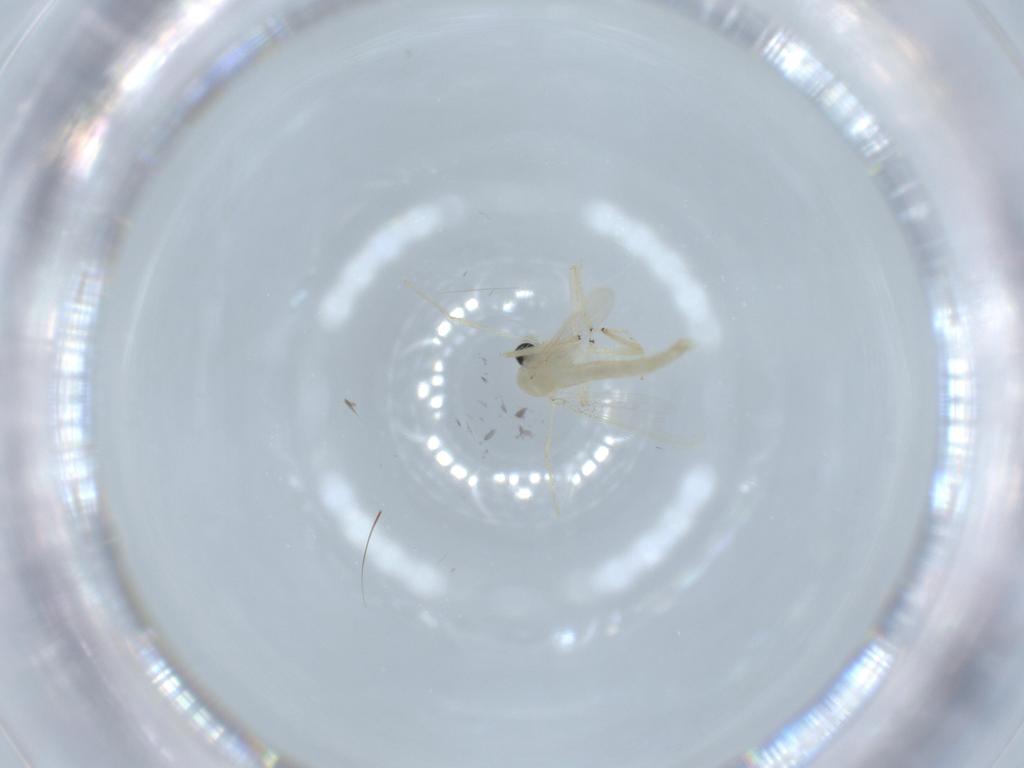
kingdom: Animalia
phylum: Arthropoda
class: Insecta
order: Diptera
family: Chironomidae
